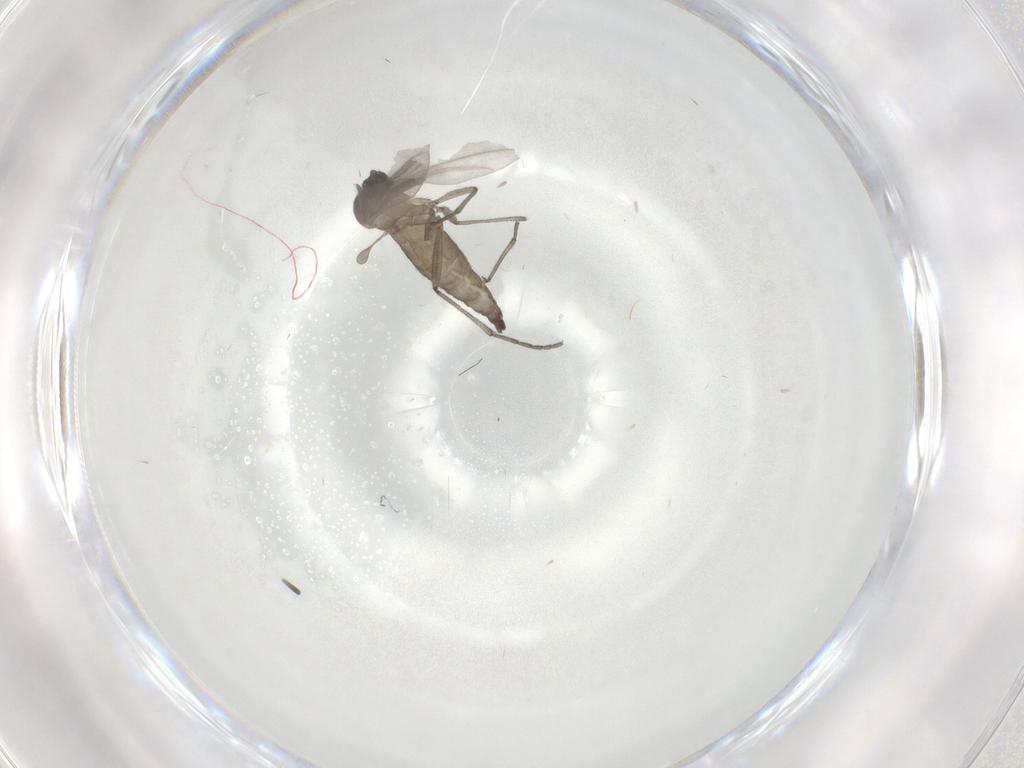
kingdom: Animalia
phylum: Arthropoda
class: Insecta
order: Diptera
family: Sciaridae
